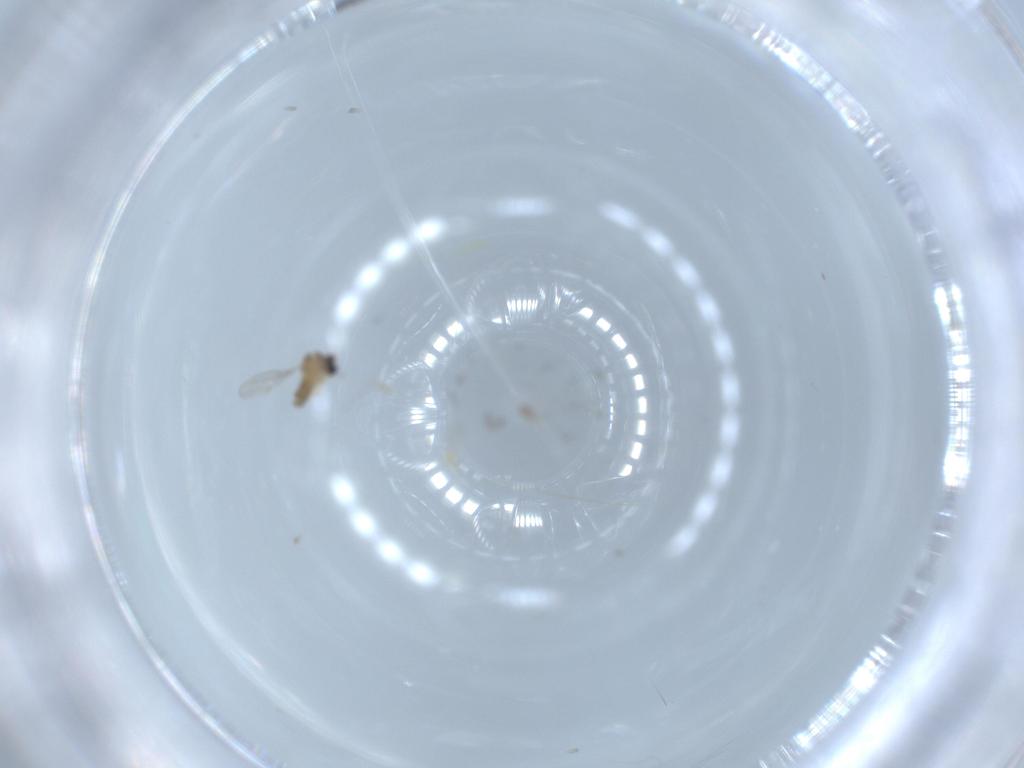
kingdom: Animalia
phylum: Arthropoda
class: Insecta
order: Diptera
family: Cecidomyiidae
